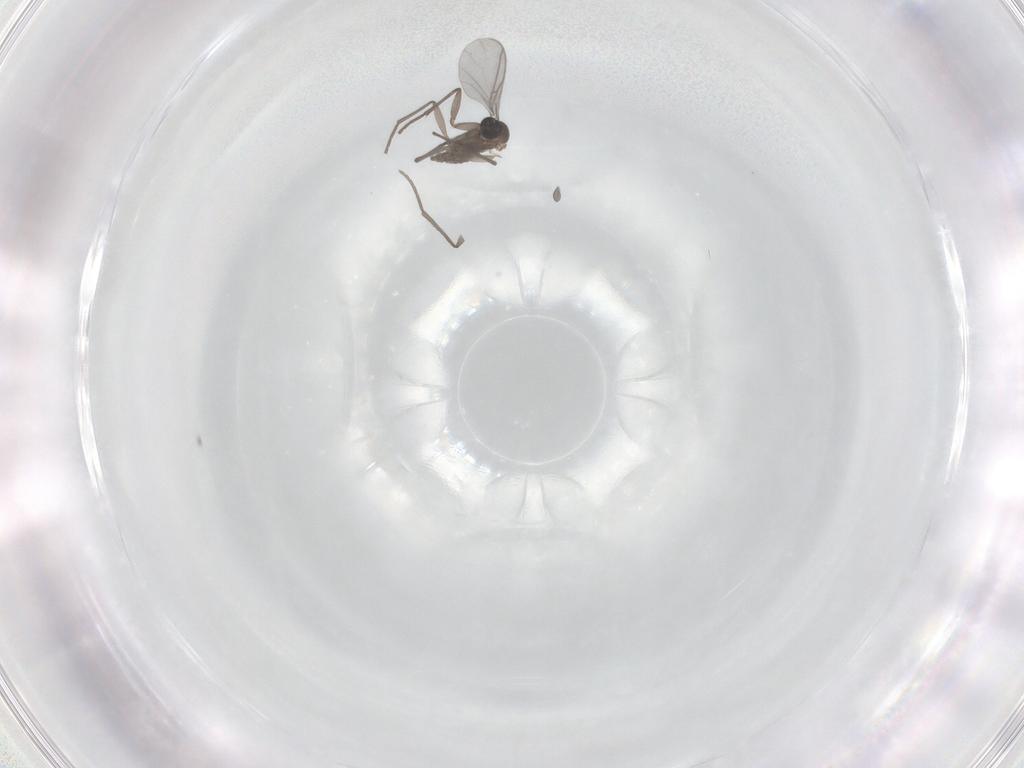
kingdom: Animalia
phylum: Arthropoda
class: Insecta
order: Diptera
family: Sciaridae
